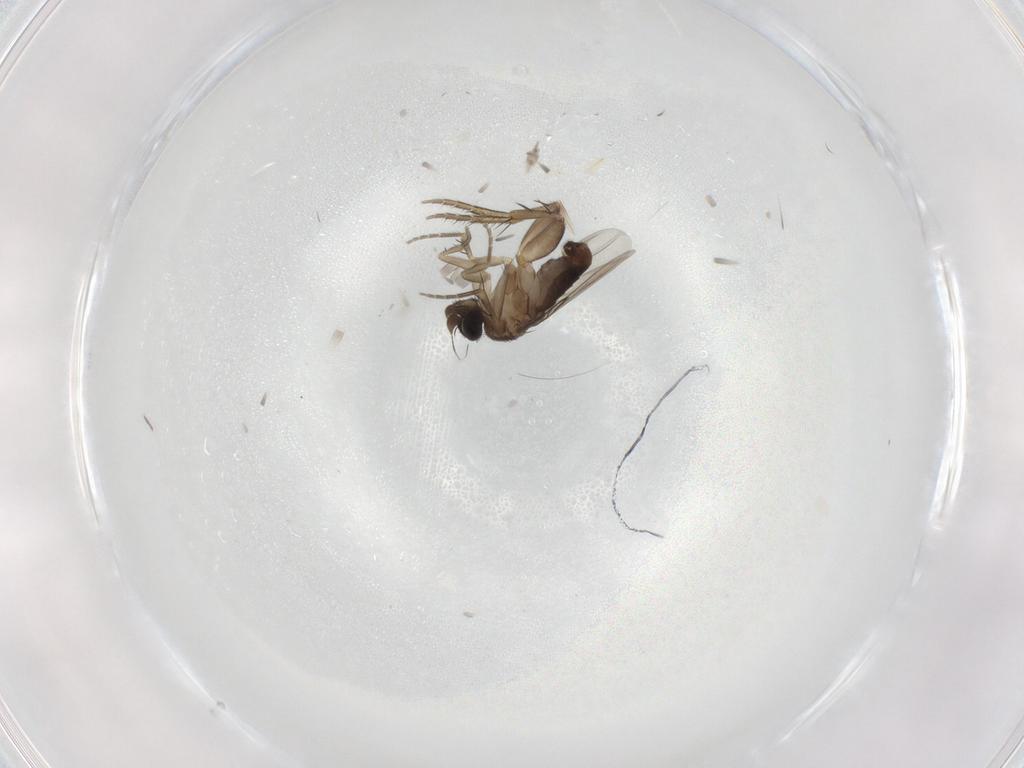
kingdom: Animalia
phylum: Arthropoda
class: Insecta
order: Diptera
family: Phoridae
